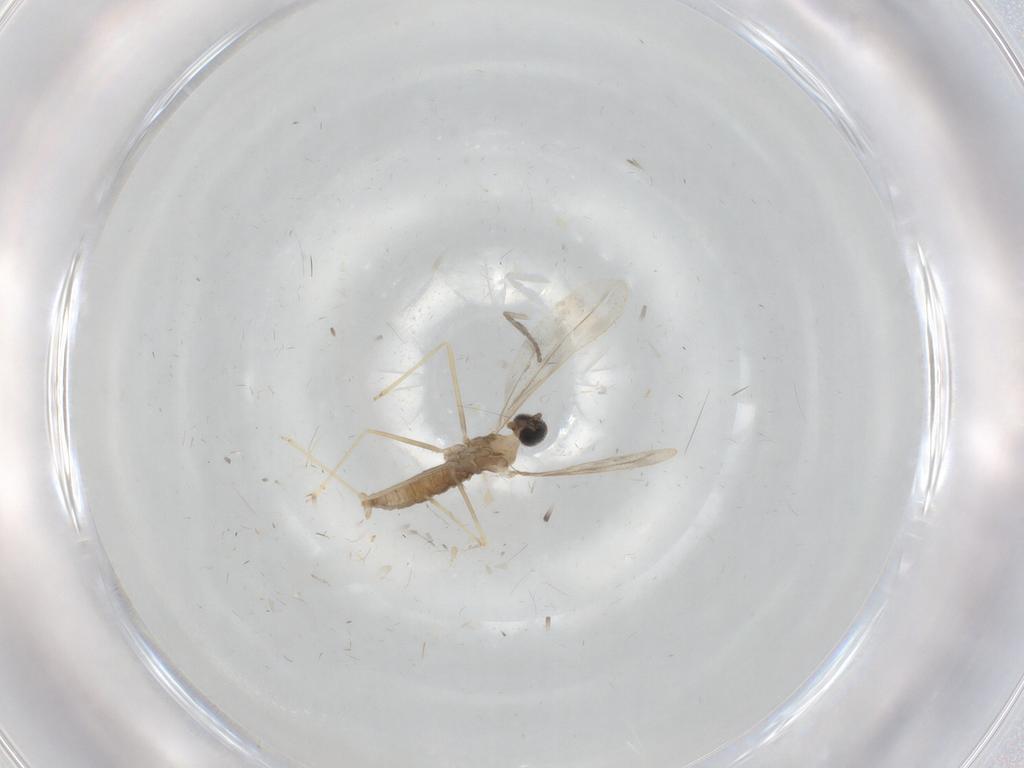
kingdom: Animalia
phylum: Arthropoda
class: Insecta
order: Diptera
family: Cecidomyiidae
